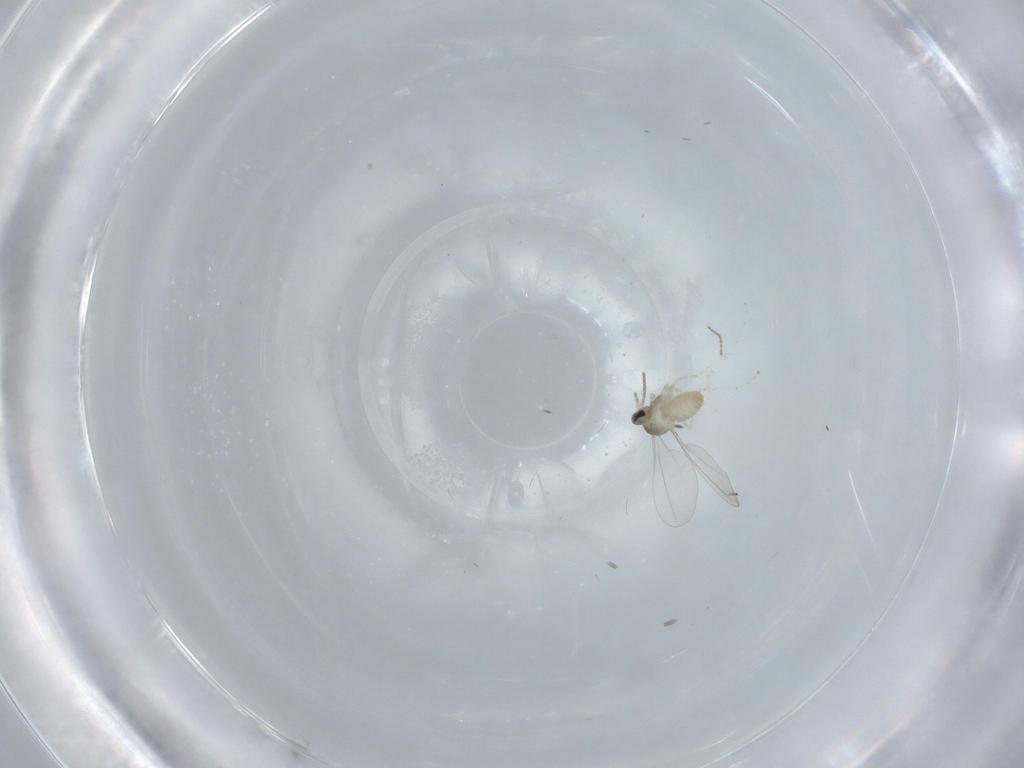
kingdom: Animalia
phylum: Arthropoda
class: Insecta
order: Diptera
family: Cecidomyiidae
